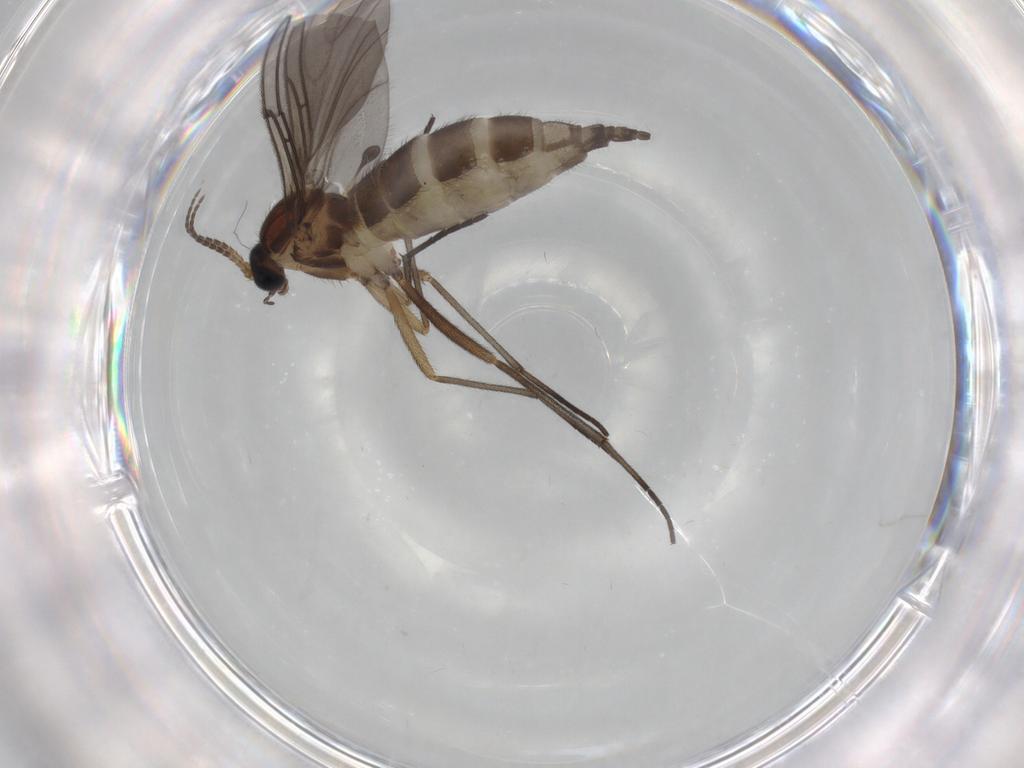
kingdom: Animalia
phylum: Arthropoda
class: Insecta
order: Diptera
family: Sciaridae
